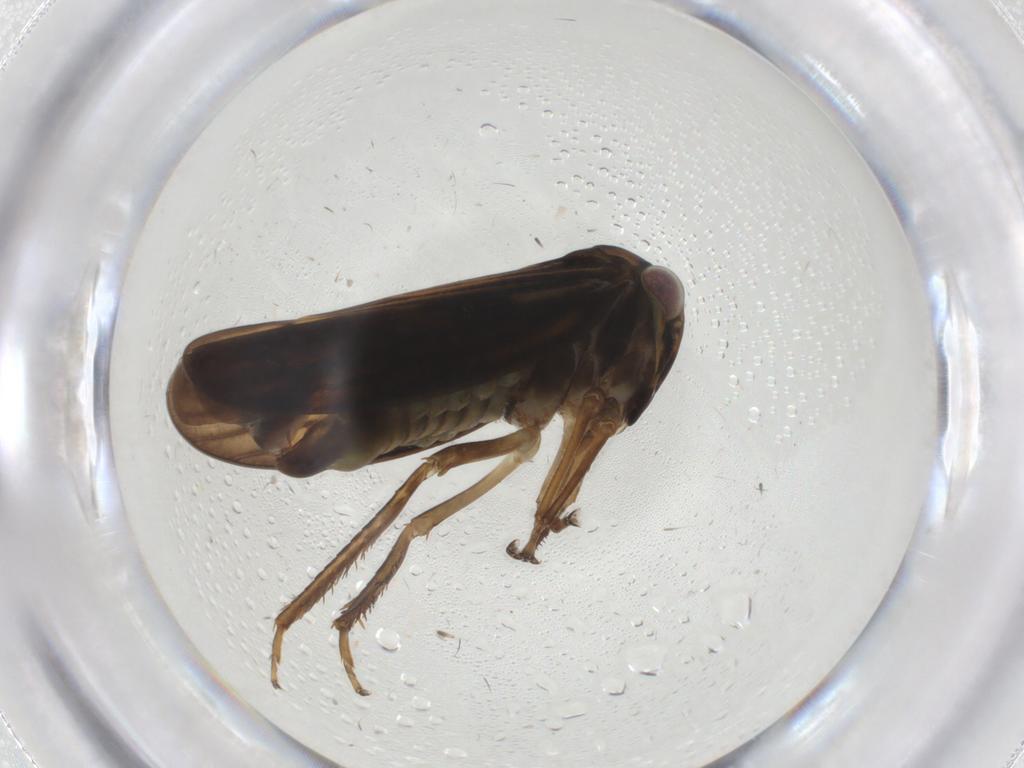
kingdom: Animalia
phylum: Arthropoda
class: Insecta
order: Hemiptera
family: Cicadellidae
